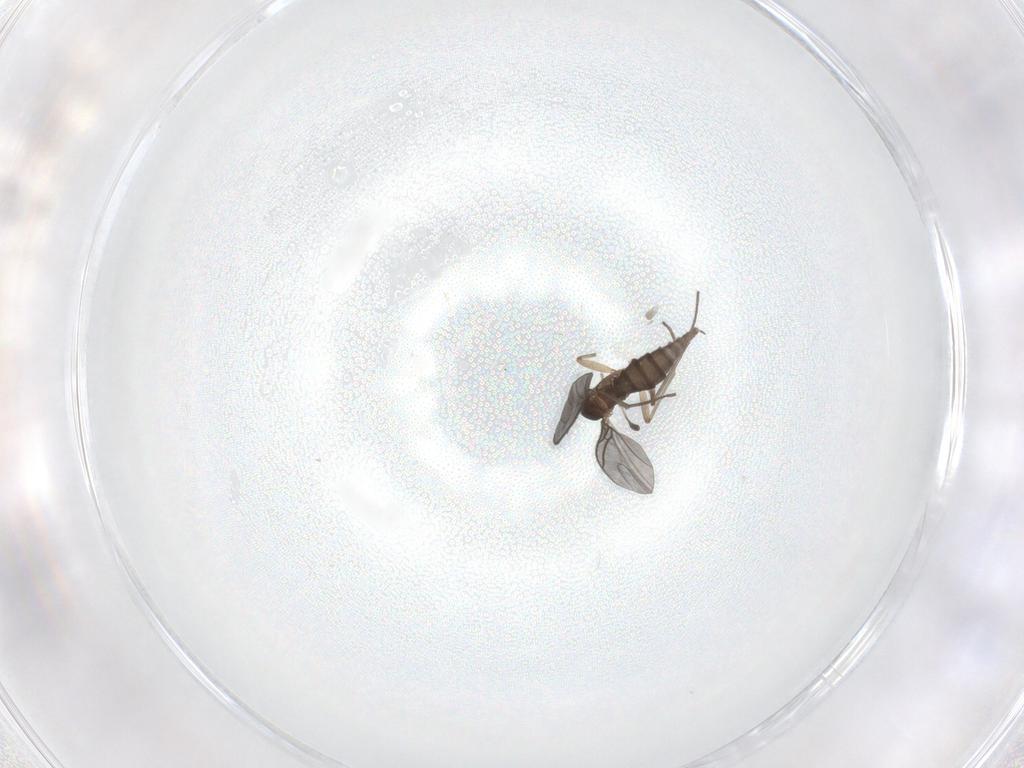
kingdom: Animalia
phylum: Arthropoda
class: Insecta
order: Diptera
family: Sciaridae
